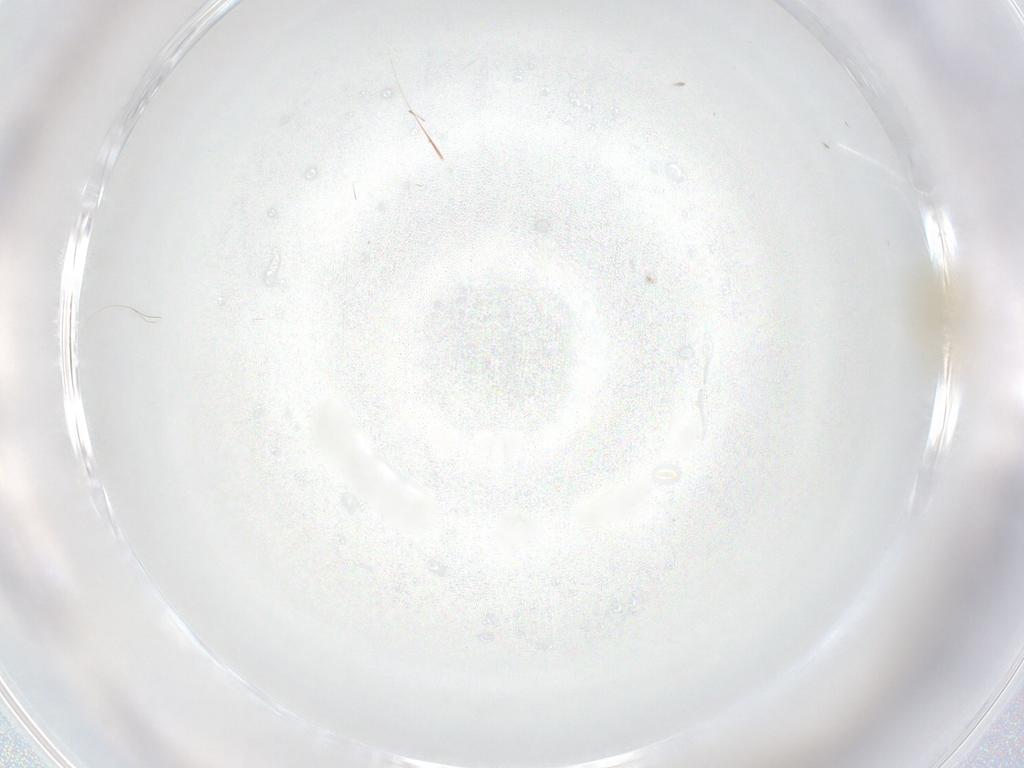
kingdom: Animalia
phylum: Arthropoda
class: Insecta
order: Blattodea
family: Ectobiidae
